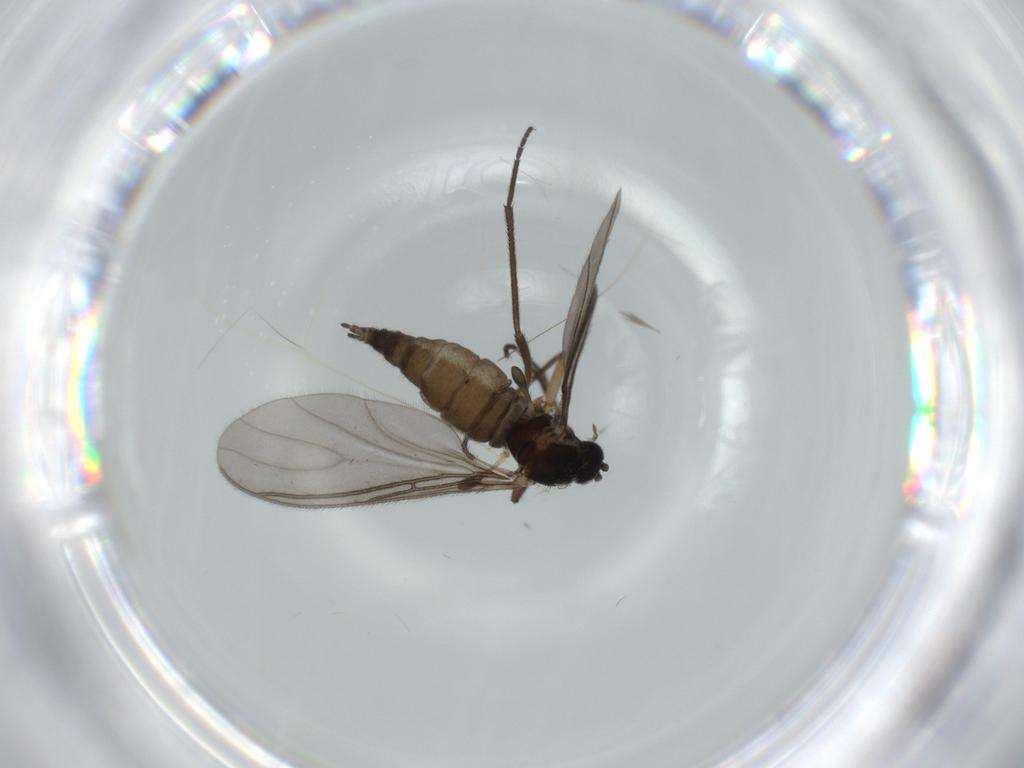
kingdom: Animalia
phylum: Arthropoda
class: Insecta
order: Diptera
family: Sciaridae
